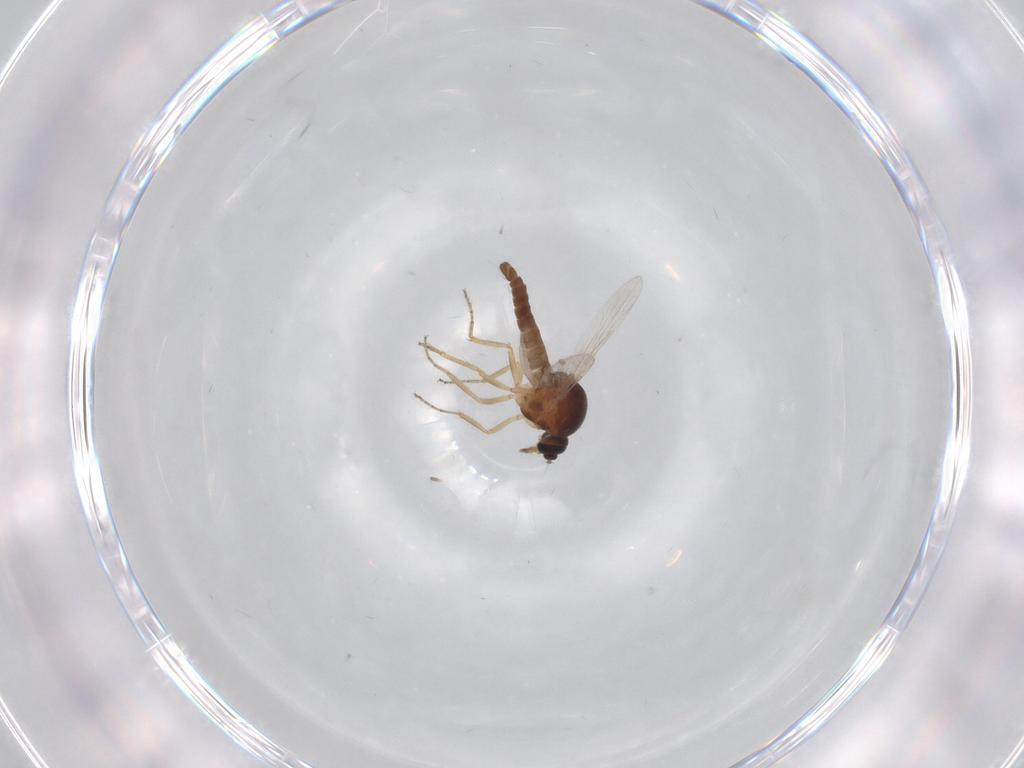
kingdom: Animalia
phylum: Arthropoda
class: Insecta
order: Diptera
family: Ceratopogonidae
